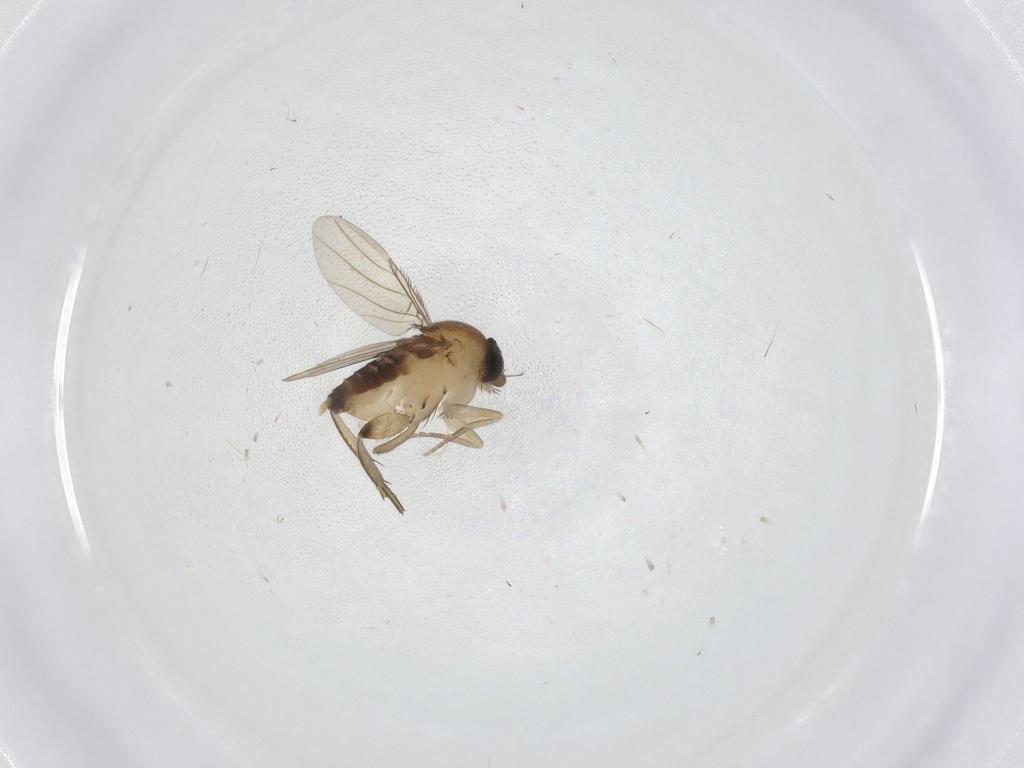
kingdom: Animalia
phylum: Arthropoda
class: Insecta
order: Diptera
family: Phoridae
